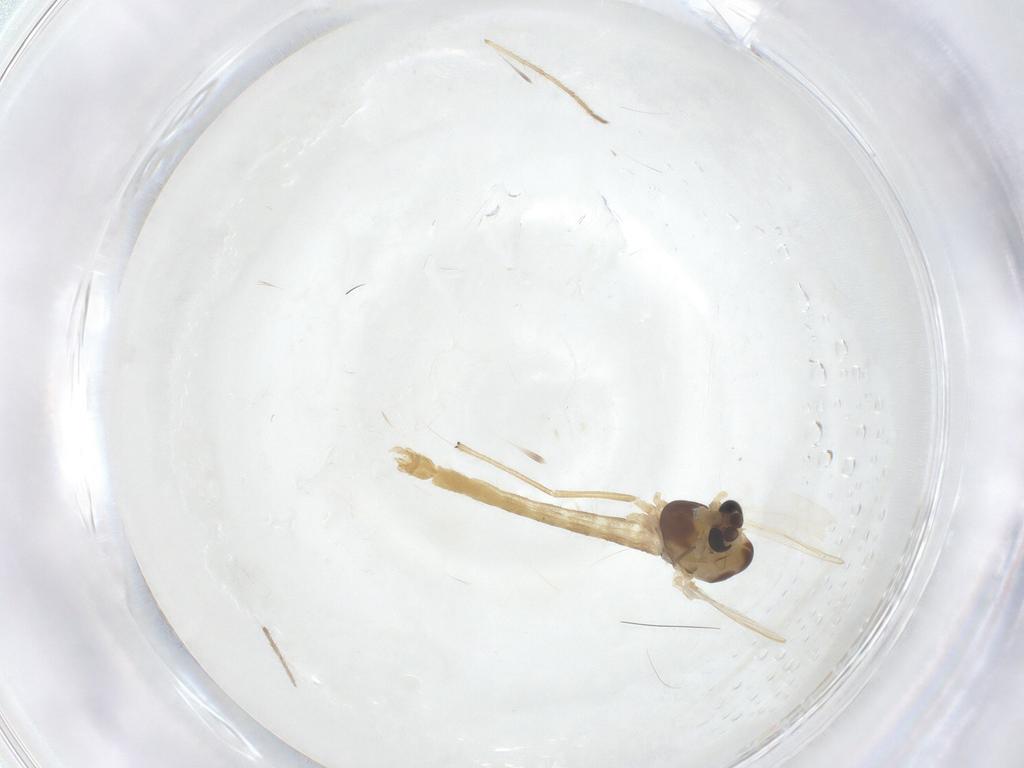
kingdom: Animalia
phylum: Arthropoda
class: Insecta
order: Diptera
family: Chironomidae
